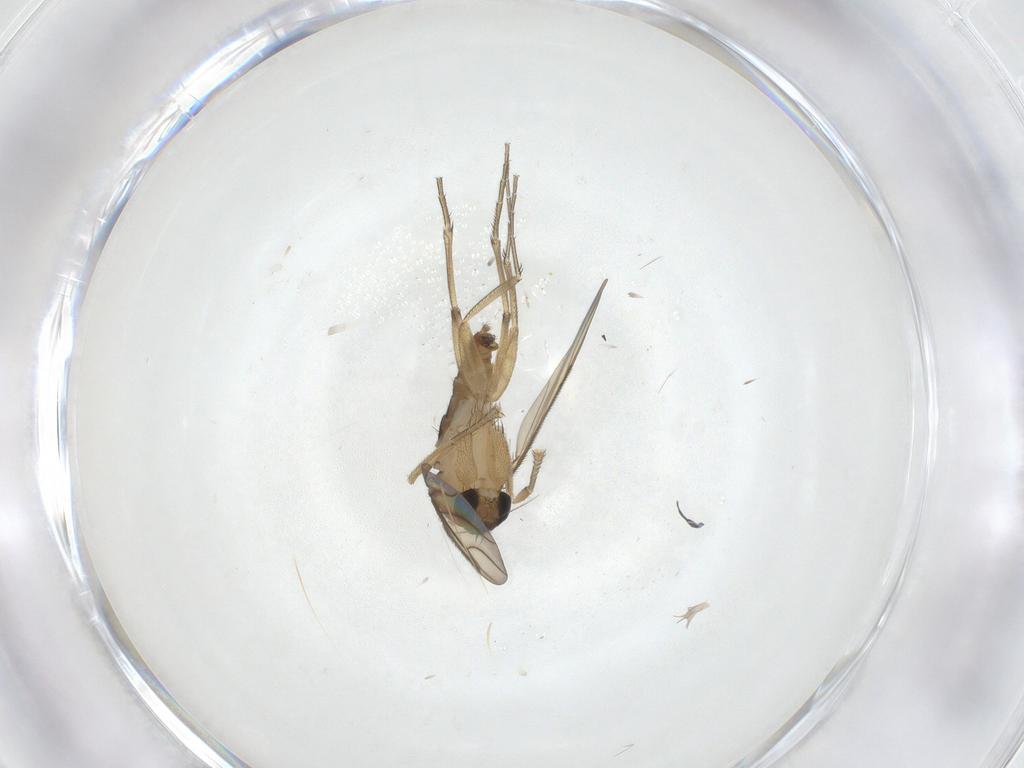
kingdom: Animalia
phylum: Arthropoda
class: Insecta
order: Diptera
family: Phoridae
